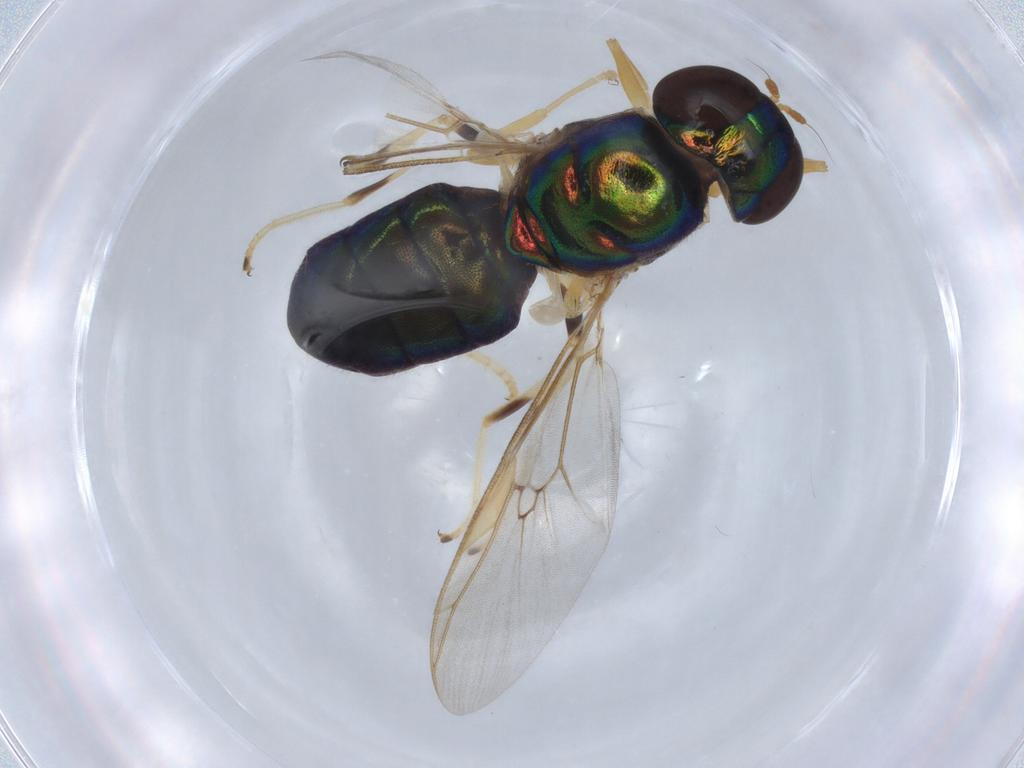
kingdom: Animalia
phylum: Arthropoda
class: Insecta
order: Diptera
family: Stratiomyidae
